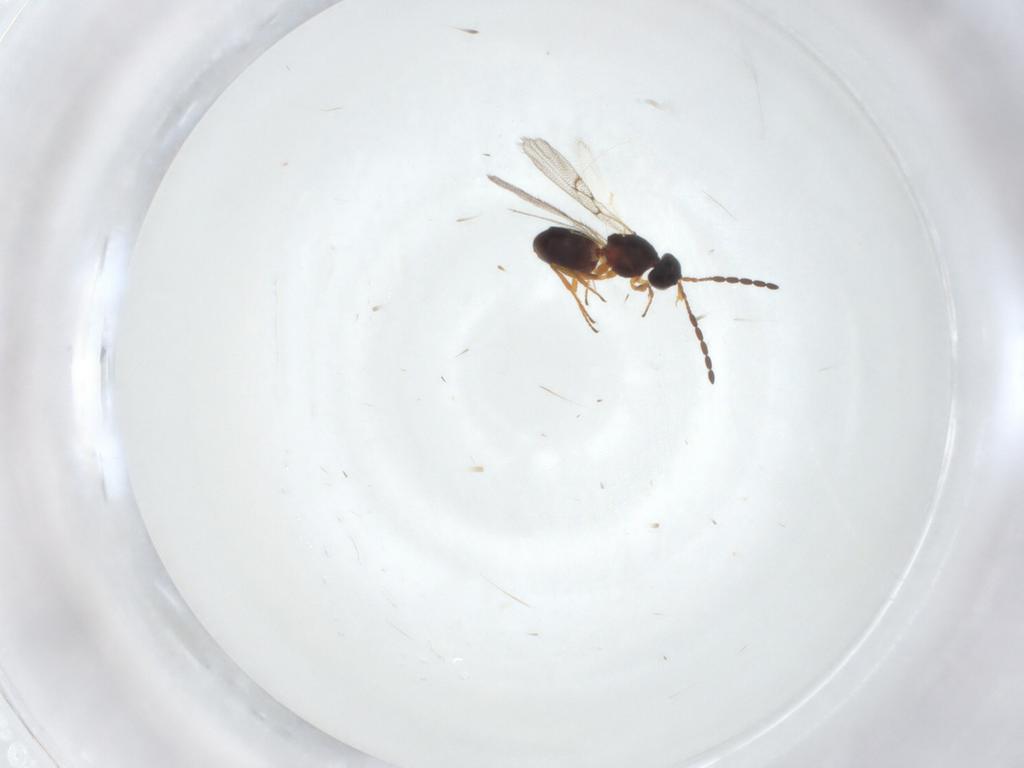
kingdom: Animalia
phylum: Arthropoda
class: Insecta
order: Hymenoptera
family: Figitidae
